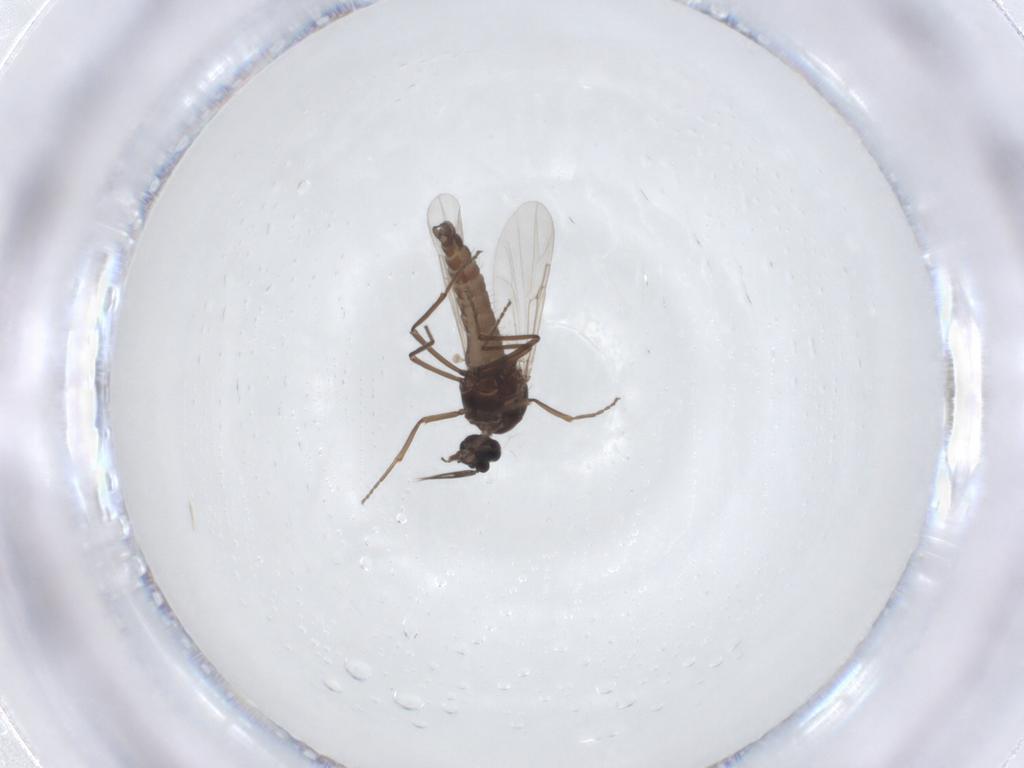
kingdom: Animalia
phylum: Arthropoda
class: Insecta
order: Diptera
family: Ceratopogonidae
